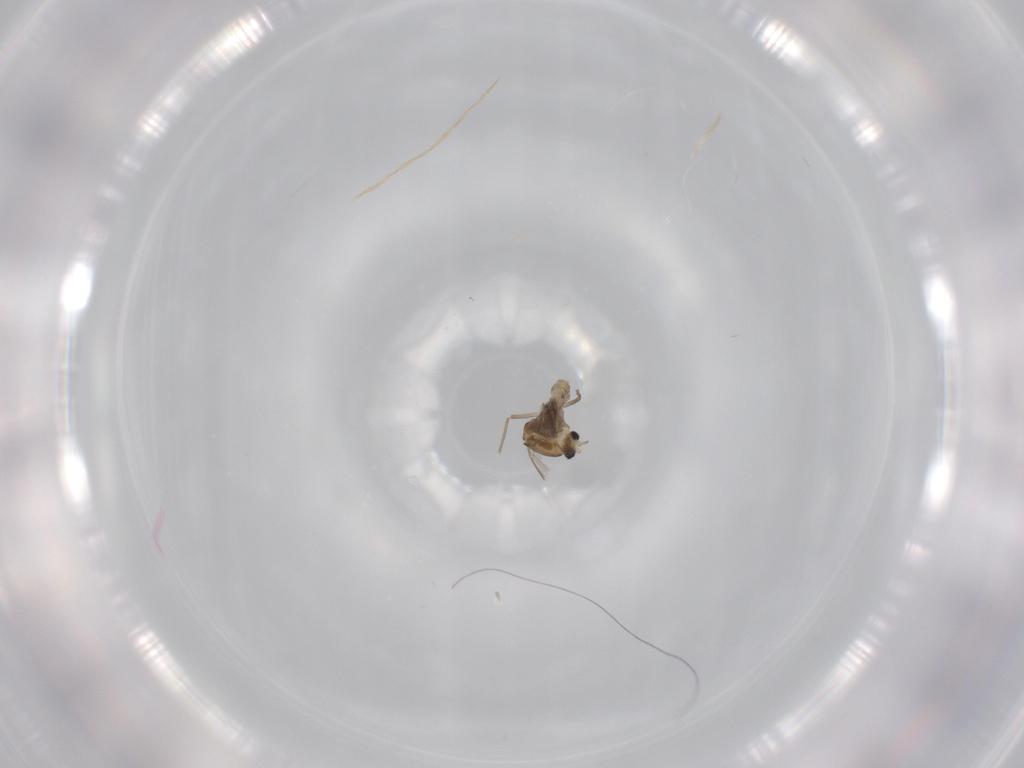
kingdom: Animalia
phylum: Arthropoda
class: Insecta
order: Diptera
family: Chironomidae
